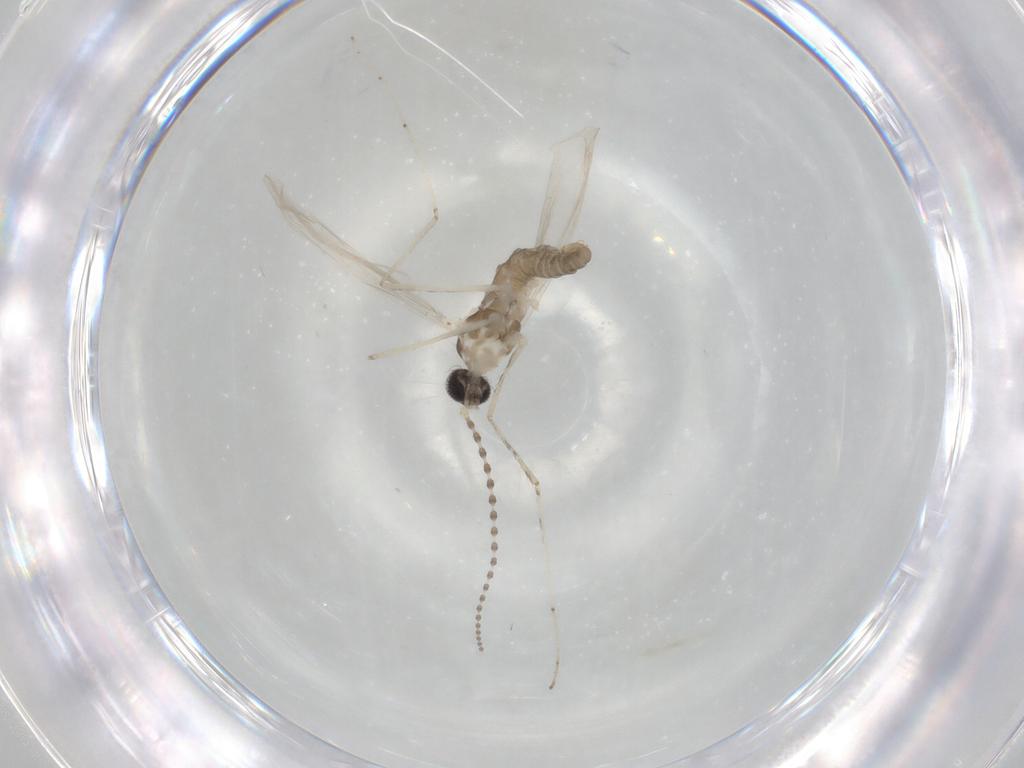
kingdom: Animalia
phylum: Arthropoda
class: Insecta
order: Diptera
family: Cecidomyiidae
